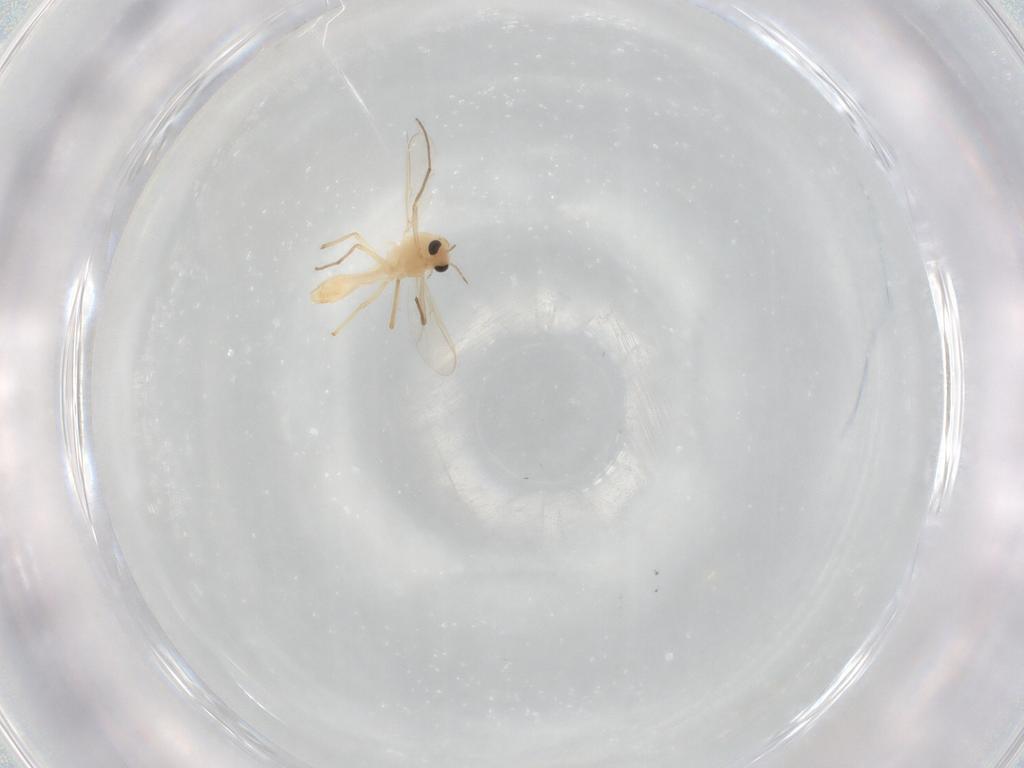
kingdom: Animalia
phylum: Arthropoda
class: Insecta
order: Diptera
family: Chironomidae
